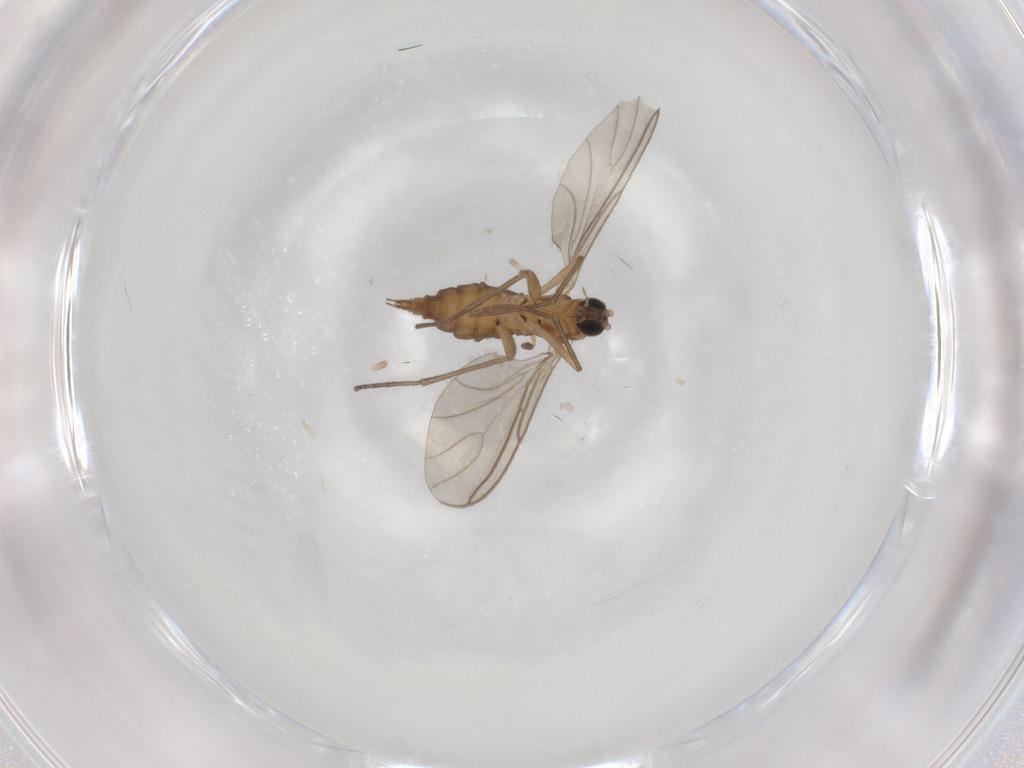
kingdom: Animalia
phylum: Arthropoda
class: Insecta
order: Diptera
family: Sciaridae
